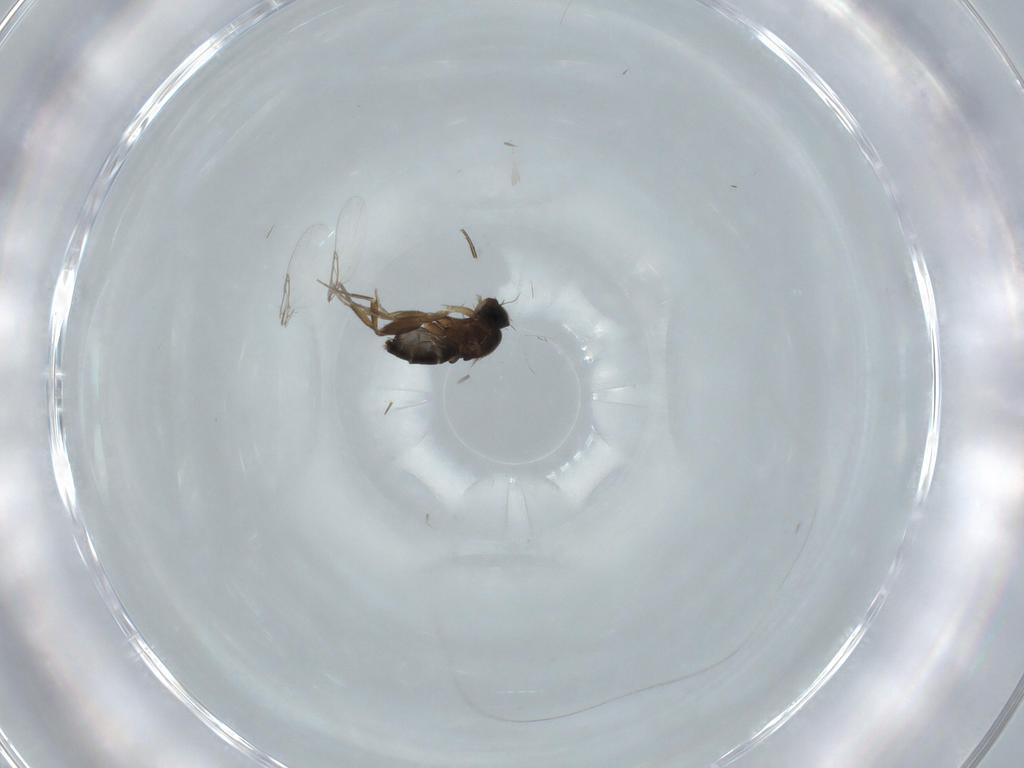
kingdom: Animalia
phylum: Arthropoda
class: Insecta
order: Diptera
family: Phoridae
